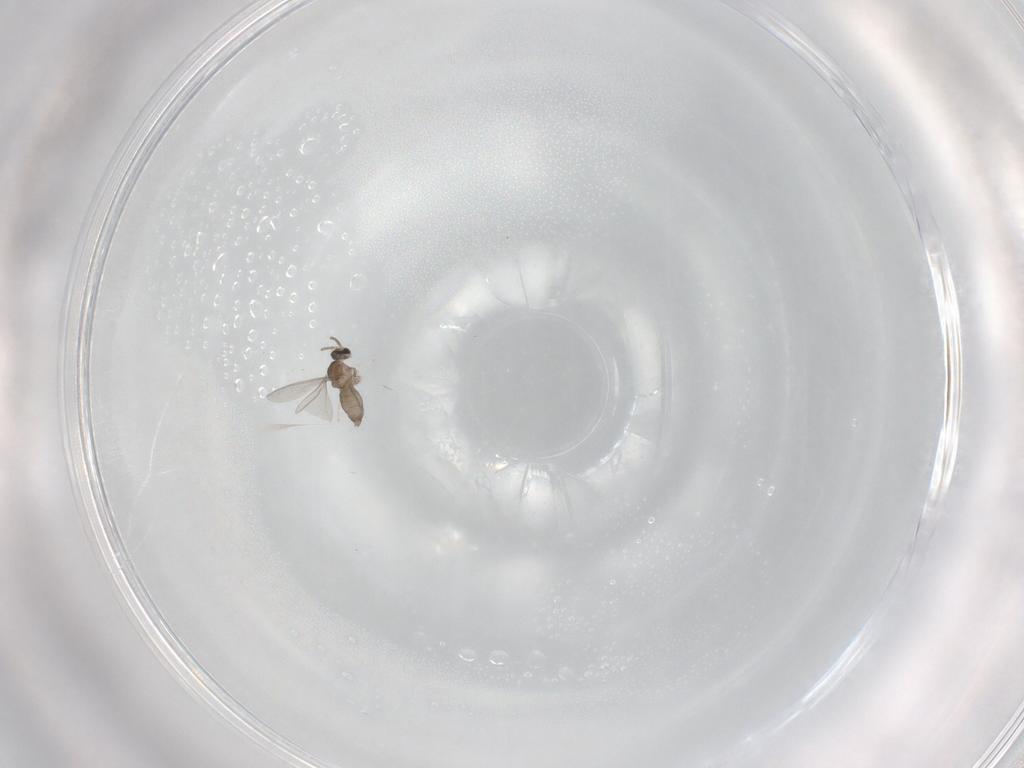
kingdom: Animalia
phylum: Arthropoda
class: Insecta
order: Diptera
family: Cecidomyiidae
